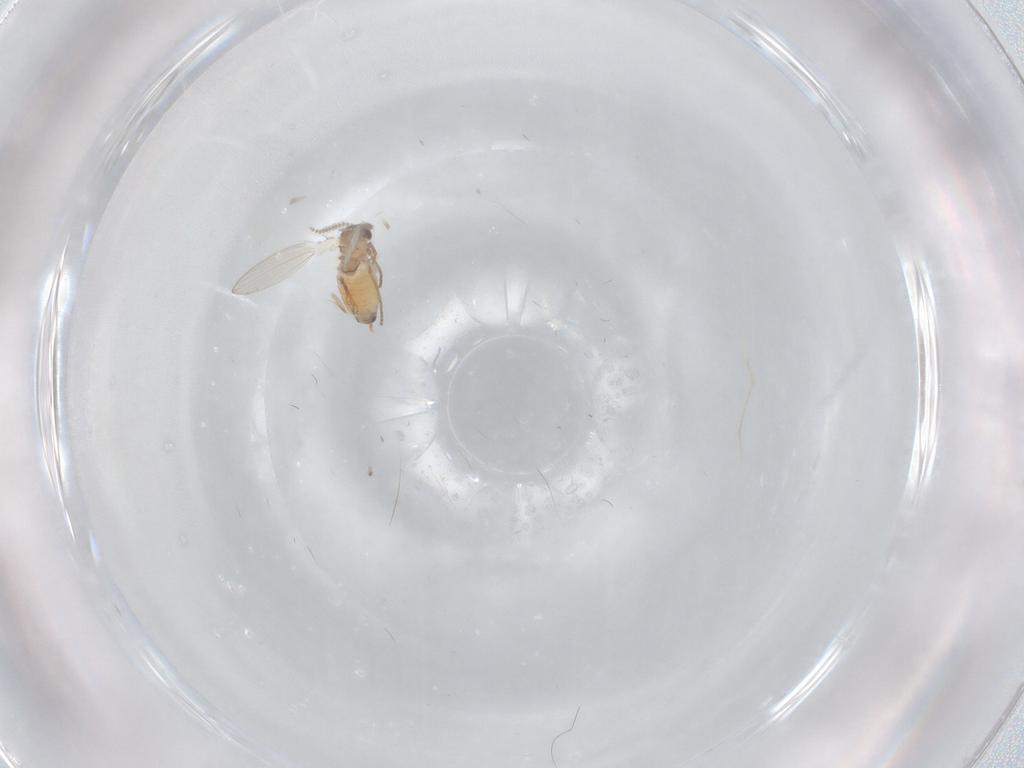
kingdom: Animalia
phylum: Arthropoda
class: Insecta
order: Diptera
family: Psychodidae
